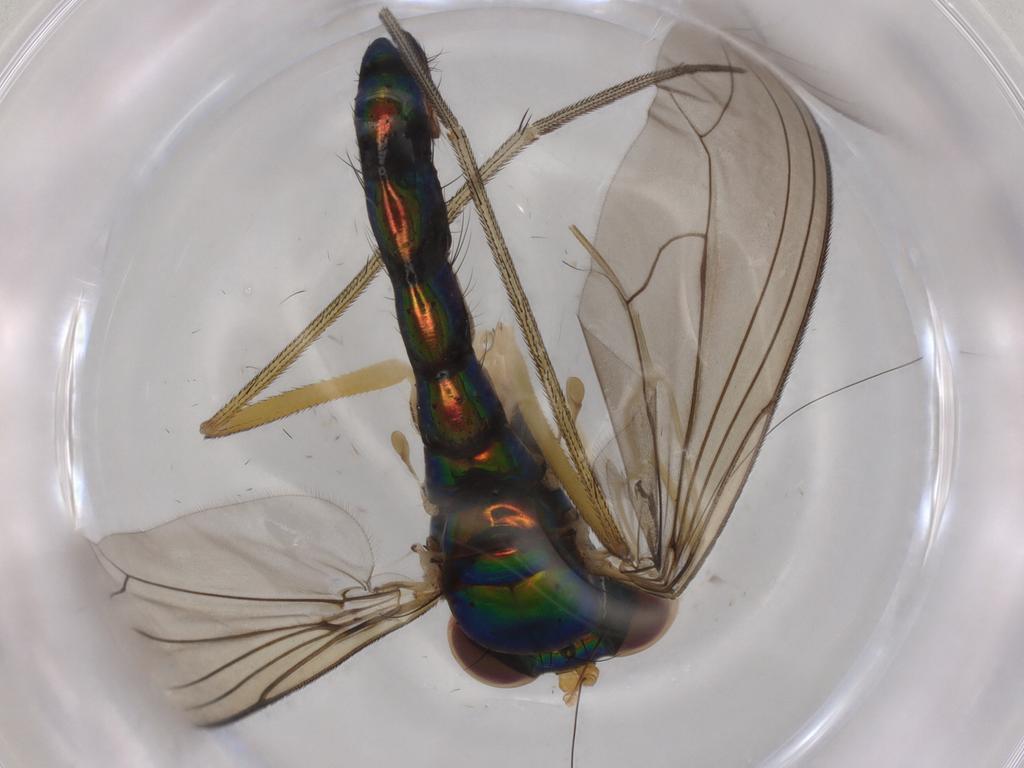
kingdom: Animalia
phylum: Arthropoda
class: Insecta
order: Diptera
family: Dolichopodidae
